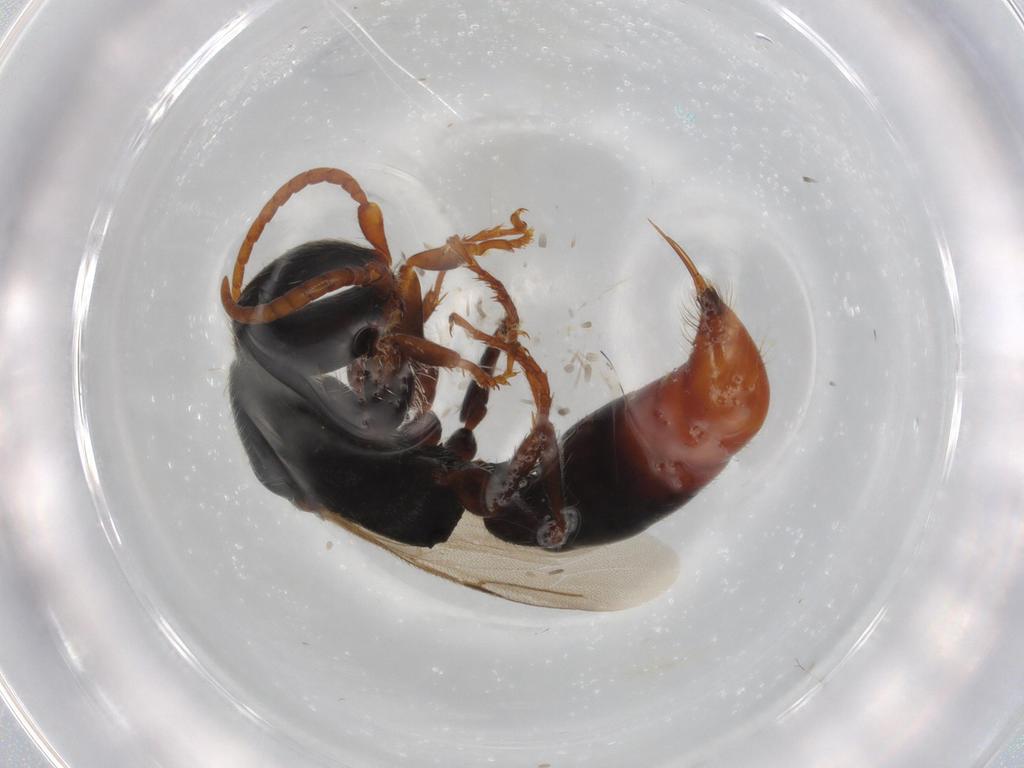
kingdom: Animalia
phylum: Arthropoda
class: Insecta
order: Hymenoptera
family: Bethylidae
